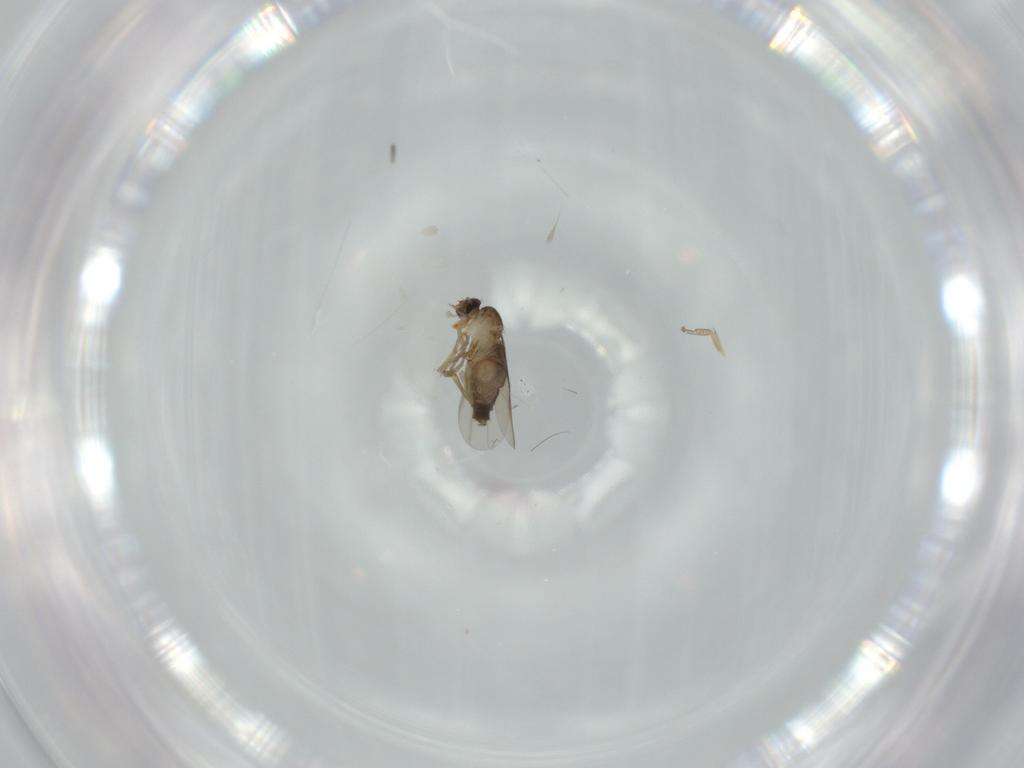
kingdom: Animalia
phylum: Arthropoda
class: Insecta
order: Diptera
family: Phoridae
